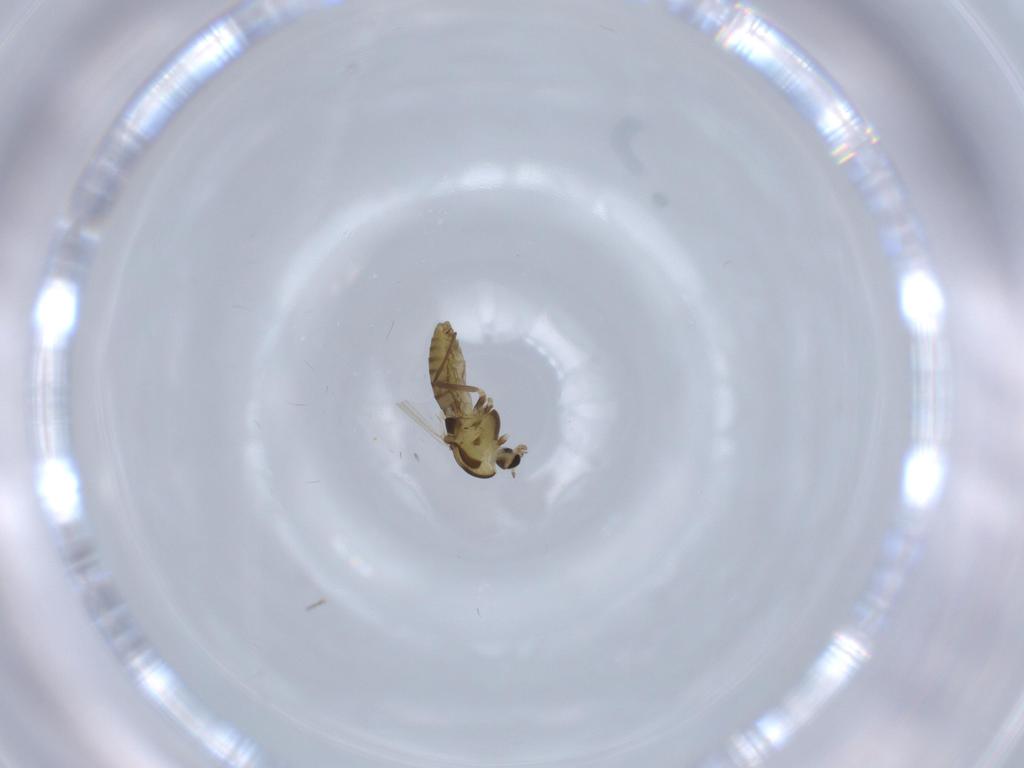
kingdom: Animalia
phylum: Arthropoda
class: Insecta
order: Diptera
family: Chironomidae
